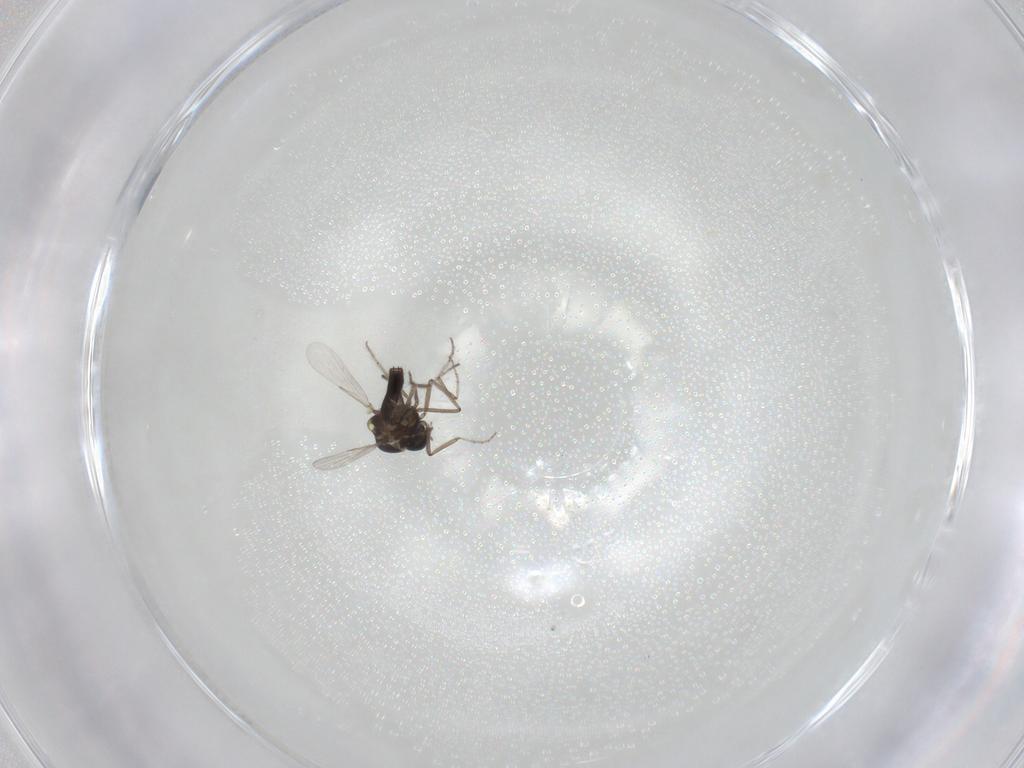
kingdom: Animalia
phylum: Arthropoda
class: Insecta
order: Diptera
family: Ceratopogonidae
